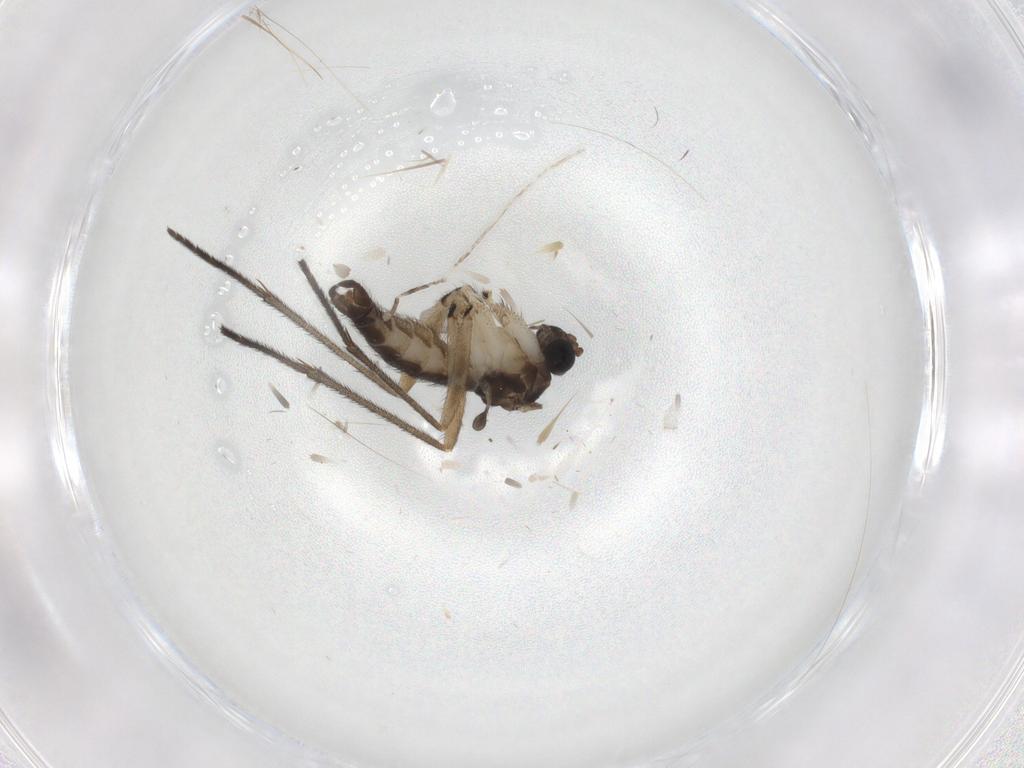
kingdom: Animalia
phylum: Arthropoda
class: Insecta
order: Diptera
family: Sciaridae
